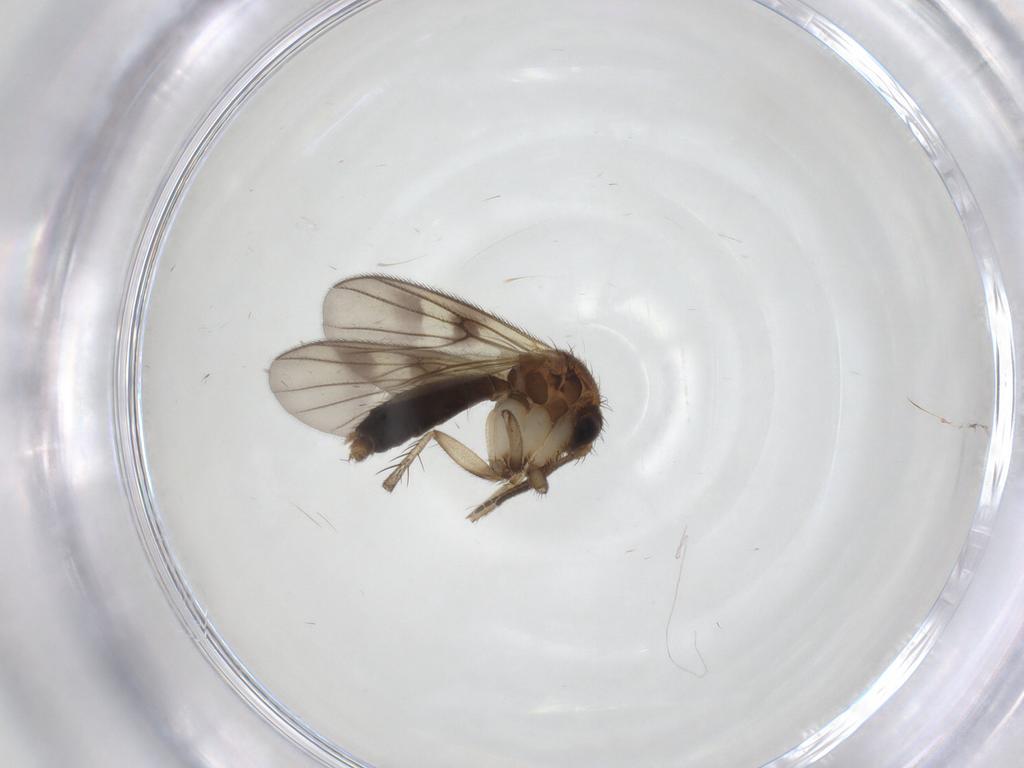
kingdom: Animalia
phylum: Arthropoda
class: Insecta
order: Diptera
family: Mycetophilidae
